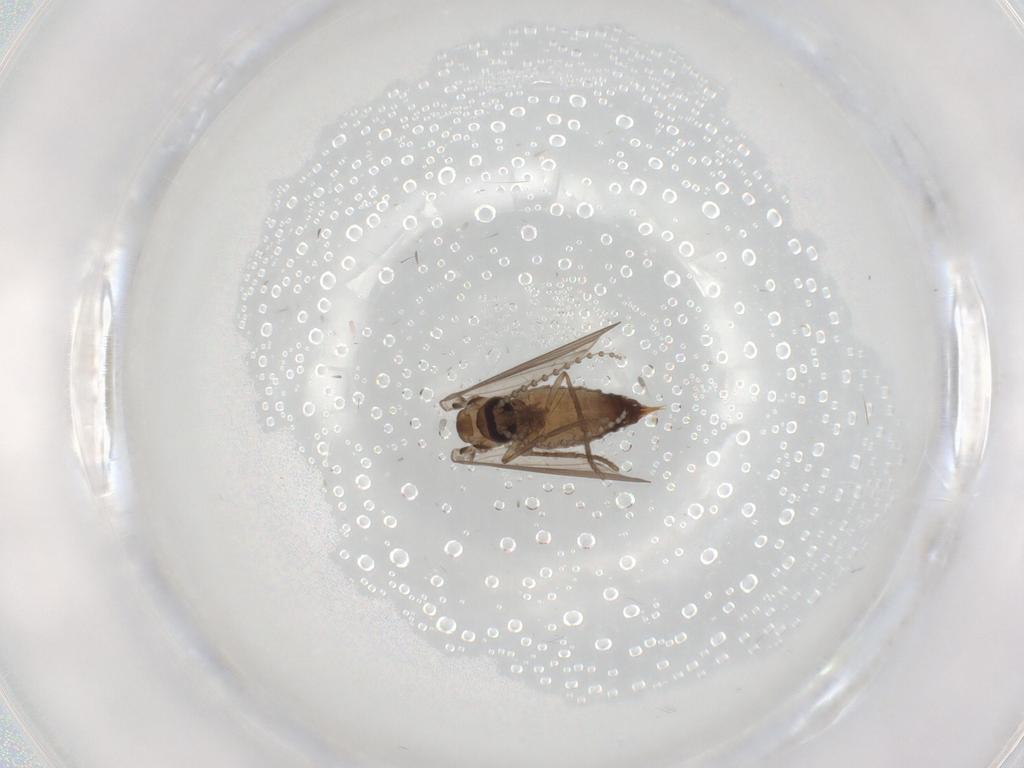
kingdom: Animalia
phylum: Arthropoda
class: Insecta
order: Diptera
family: Psychodidae
